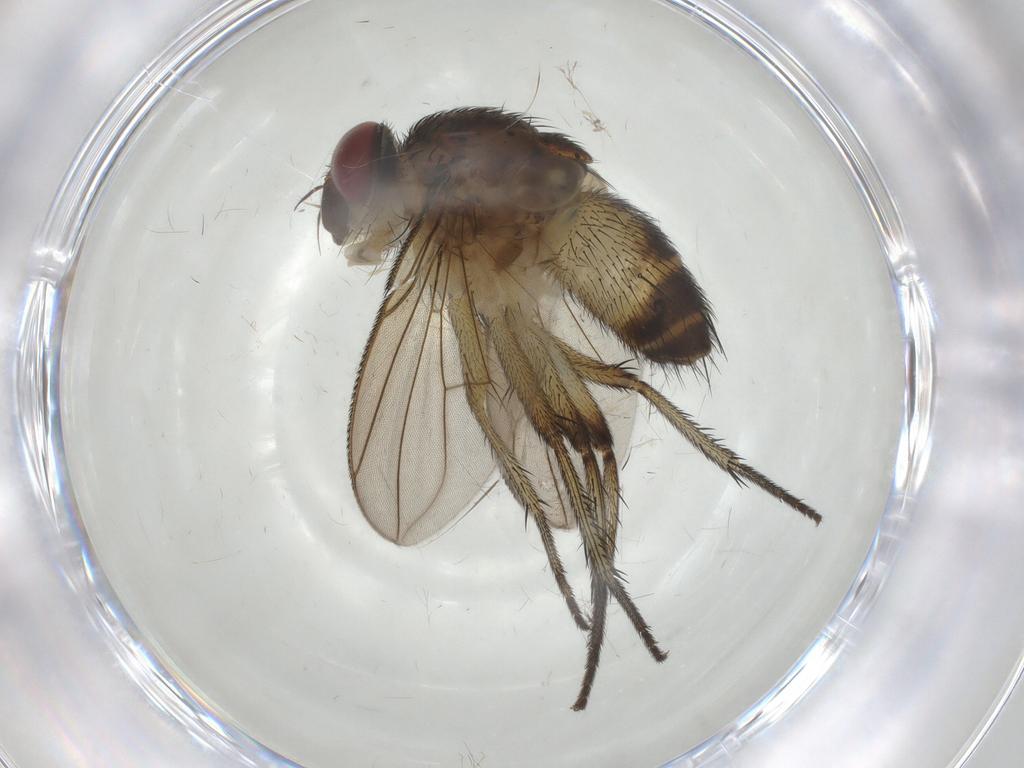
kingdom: Animalia
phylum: Arthropoda
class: Insecta
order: Diptera
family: Tachinidae
